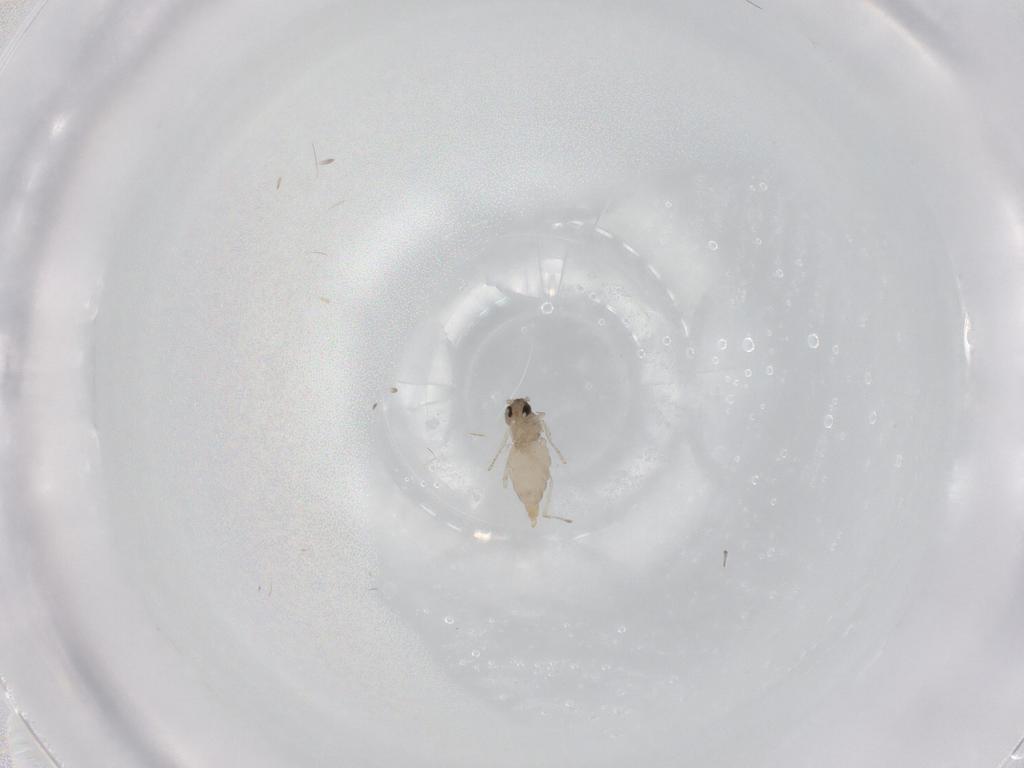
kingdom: Animalia
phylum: Arthropoda
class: Insecta
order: Diptera
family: Cecidomyiidae
